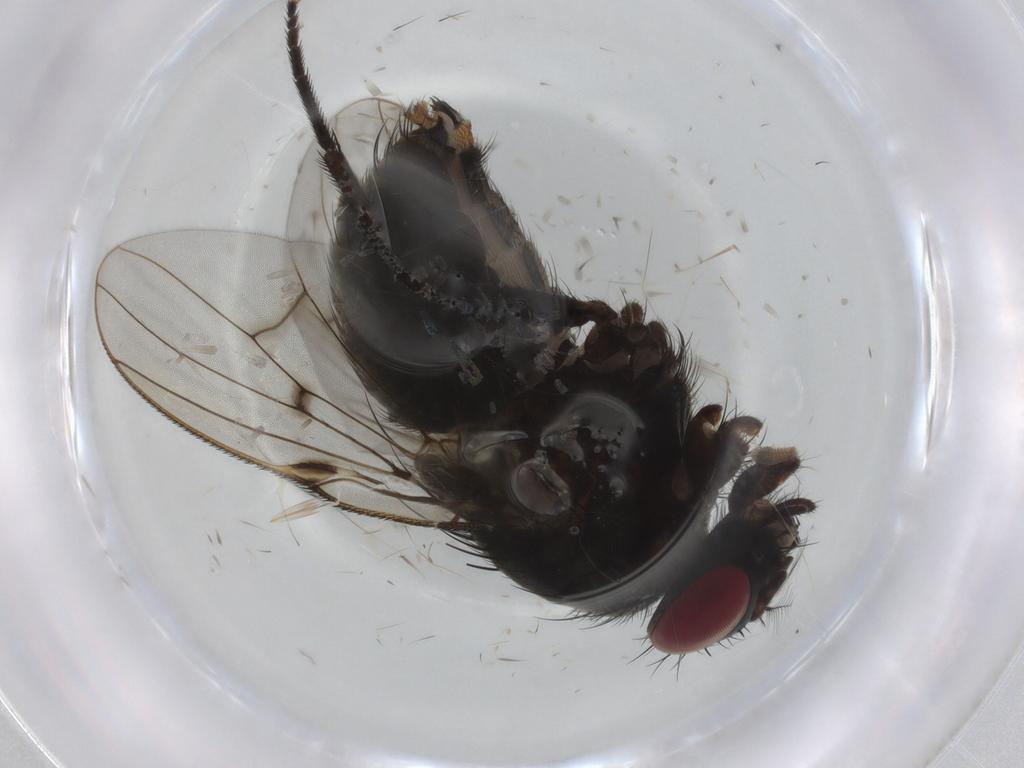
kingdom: Animalia
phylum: Arthropoda
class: Insecta
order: Diptera
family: Muscidae
